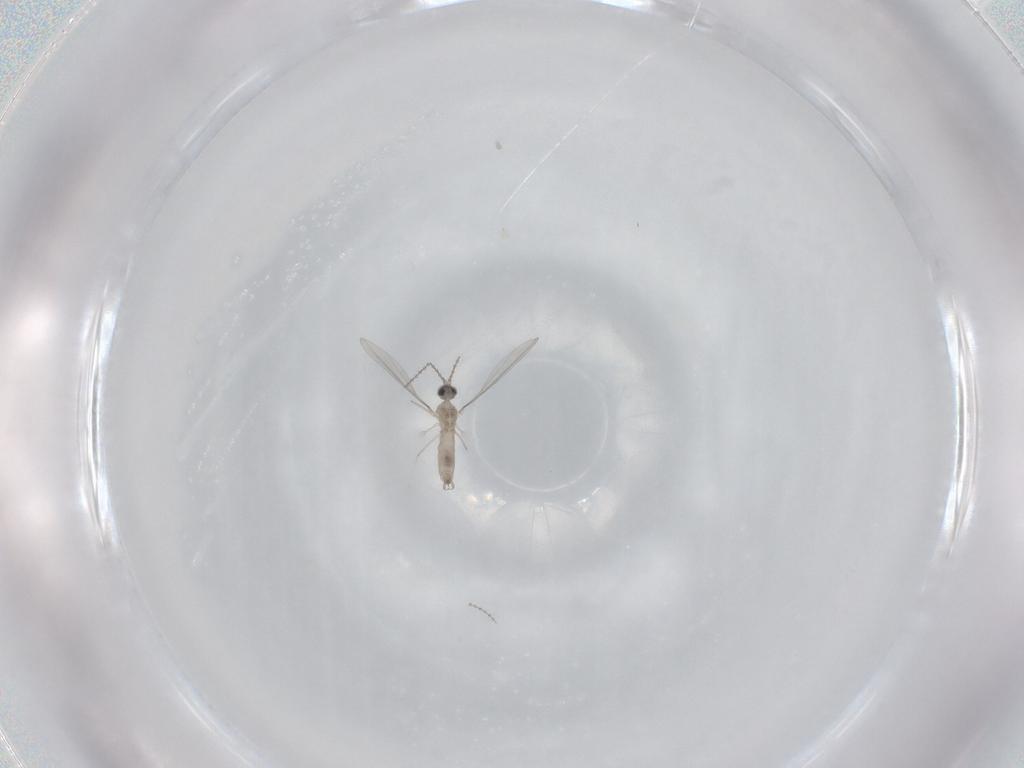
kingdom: Animalia
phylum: Arthropoda
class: Insecta
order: Diptera
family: Cecidomyiidae
